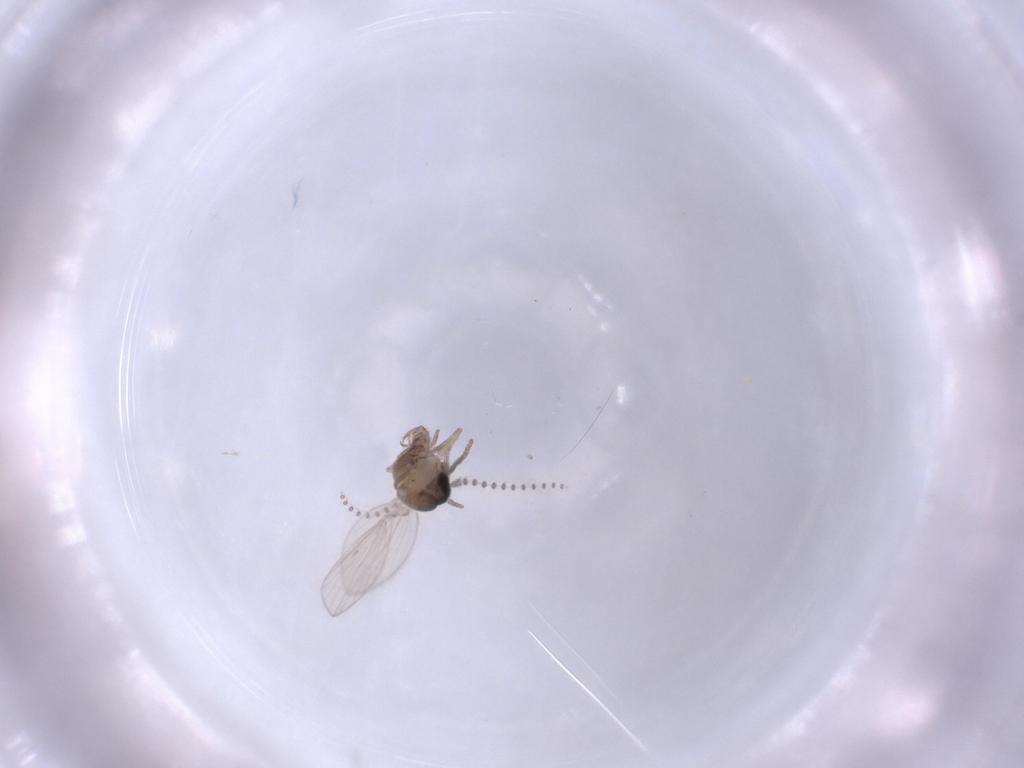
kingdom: Animalia
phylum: Arthropoda
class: Insecta
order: Diptera
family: Psychodidae
